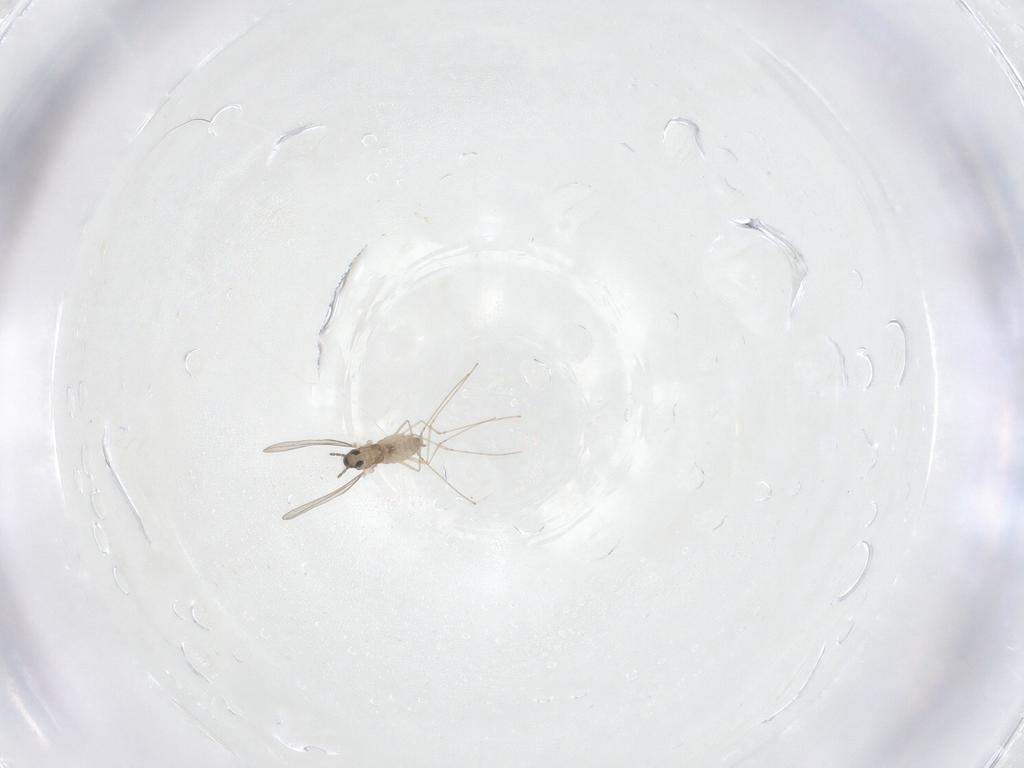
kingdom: Animalia
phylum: Arthropoda
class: Insecta
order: Diptera
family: Cecidomyiidae
